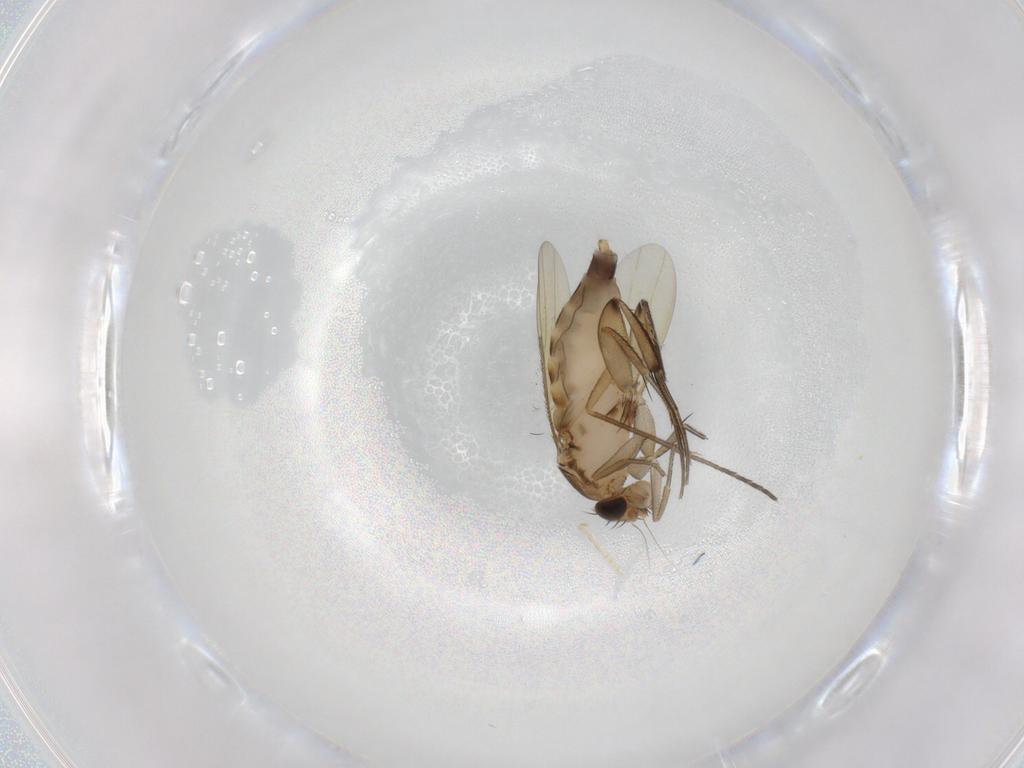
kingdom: Animalia
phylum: Arthropoda
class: Insecta
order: Diptera
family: Phoridae
